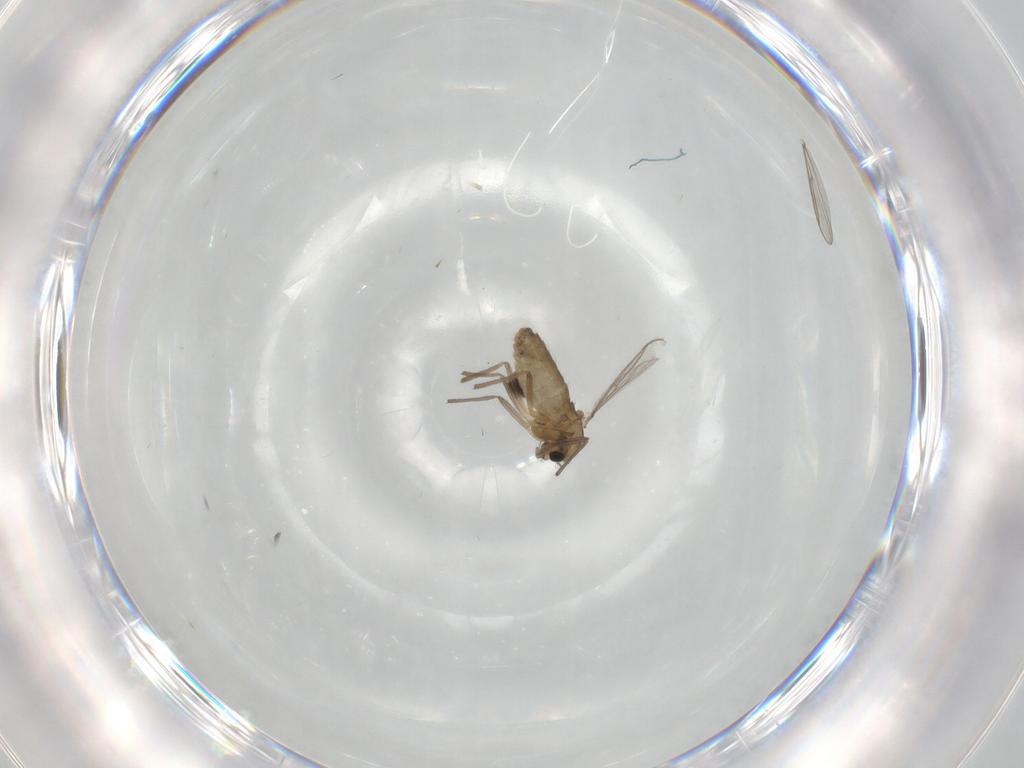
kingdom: Animalia
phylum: Arthropoda
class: Insecta
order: Diptera
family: Chironomidae
